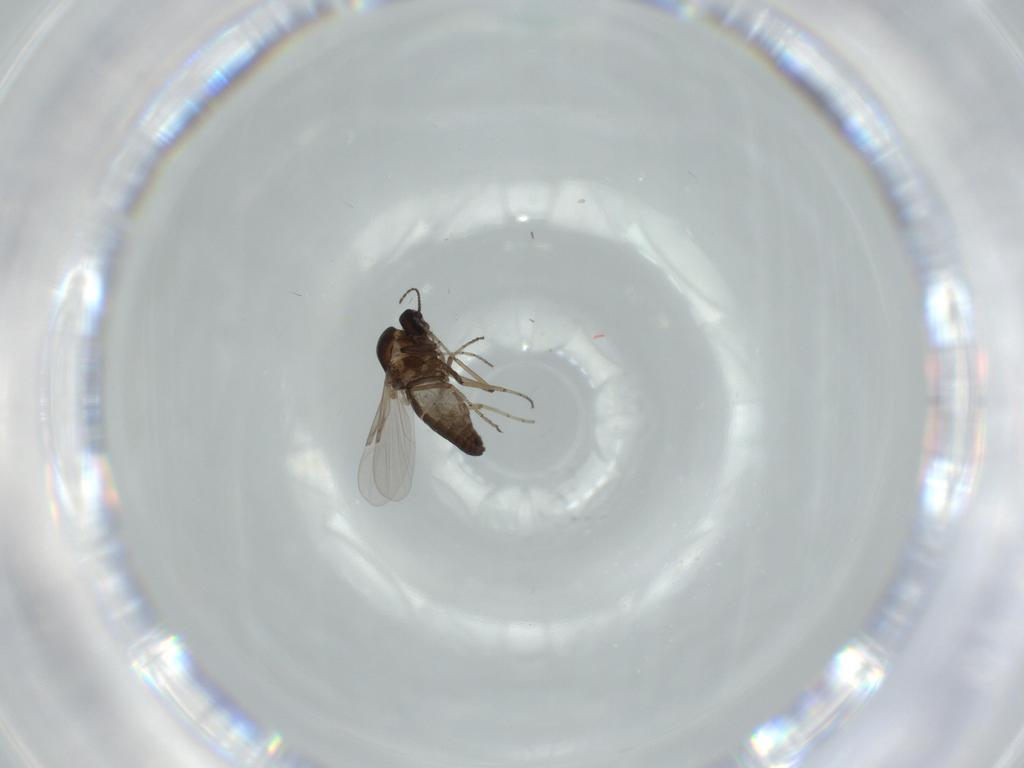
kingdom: Animalia
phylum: Arthropoda
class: Insecta
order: Diptera
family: Ceratopogonidae
